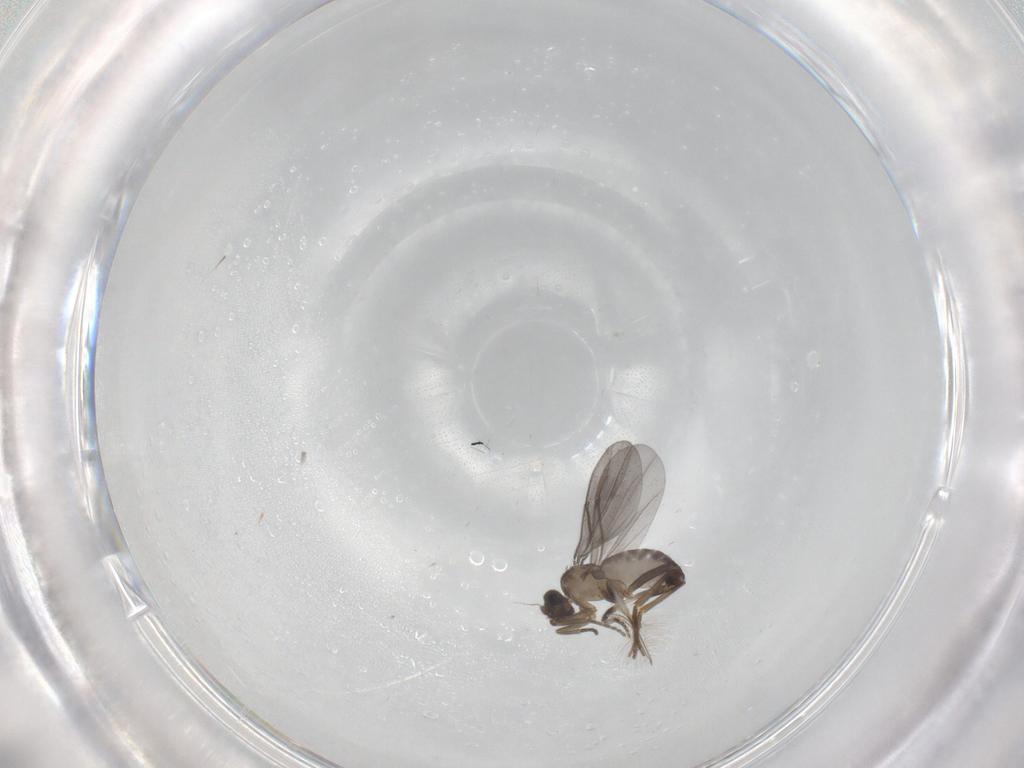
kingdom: Animalia
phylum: Arthropoda
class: Insecta
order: Diptera
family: Phoridae
